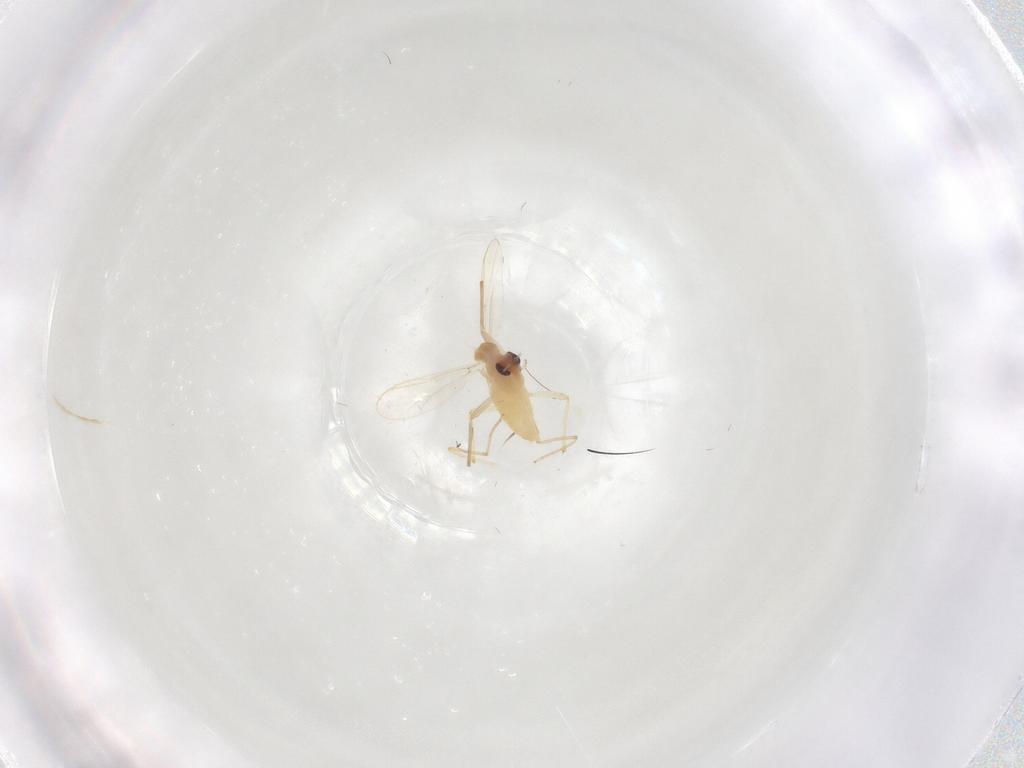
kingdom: Animalia
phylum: Arthropoda
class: Insecta
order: Diptera
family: Chironomidae
